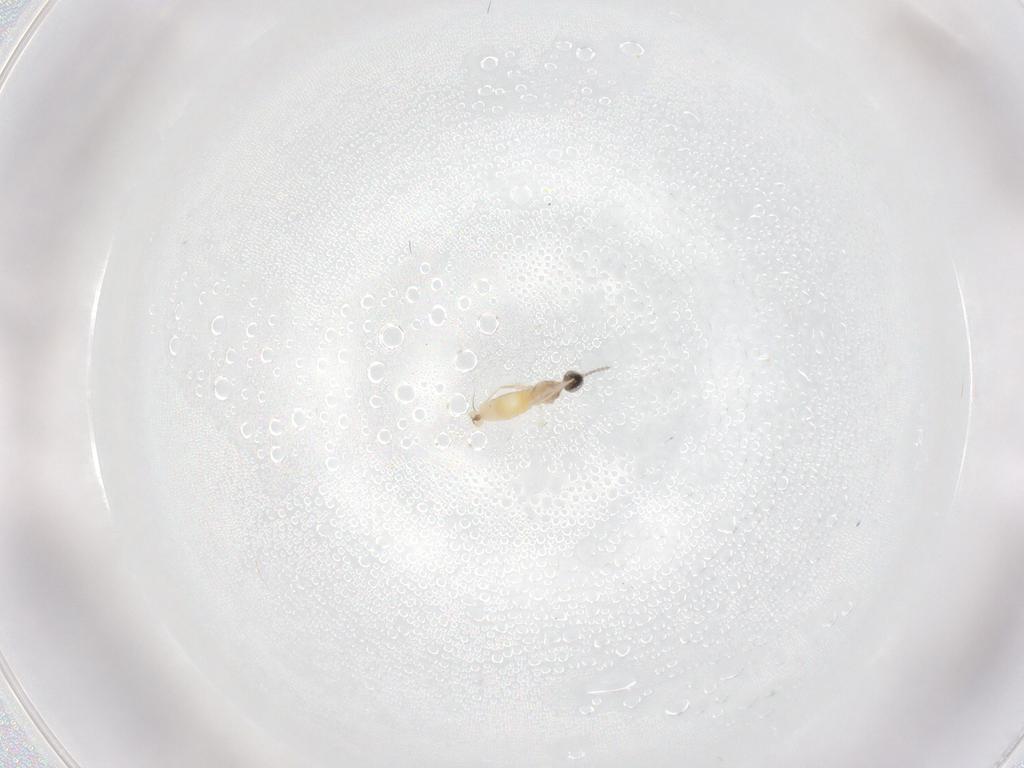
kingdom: Animalia
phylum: Arthropoda
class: Insecta
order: Diptera
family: Cecidomyiidae
